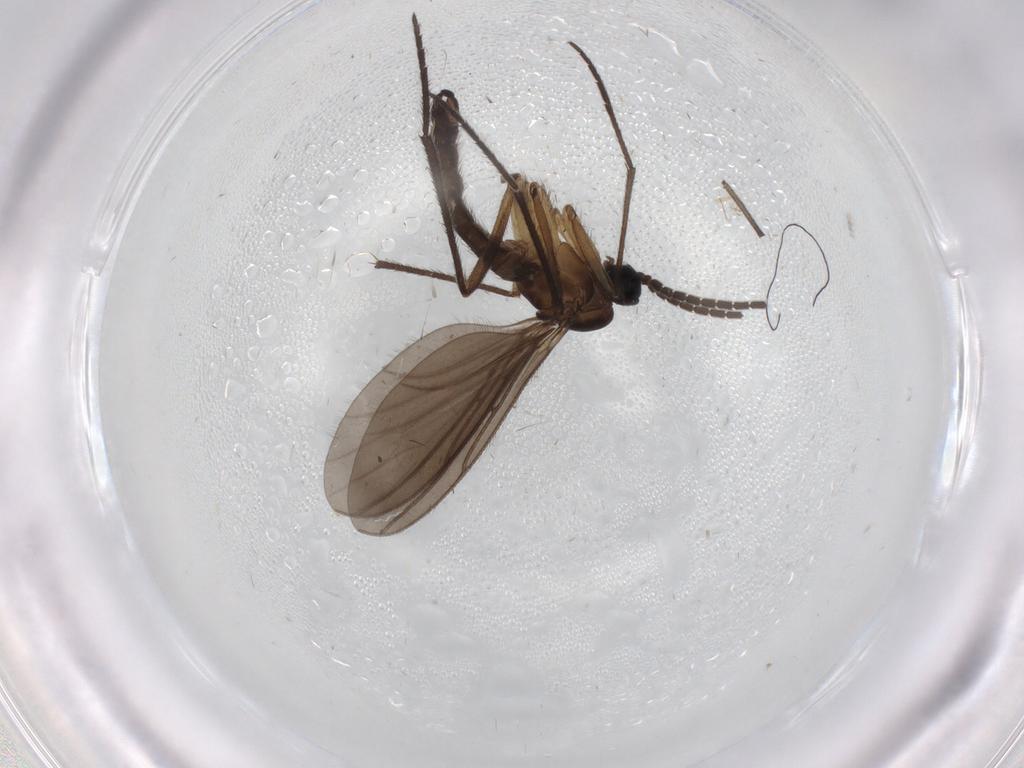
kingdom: Animalia
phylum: Arthropoda
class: Insecta
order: Diptera
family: Sciaridae
